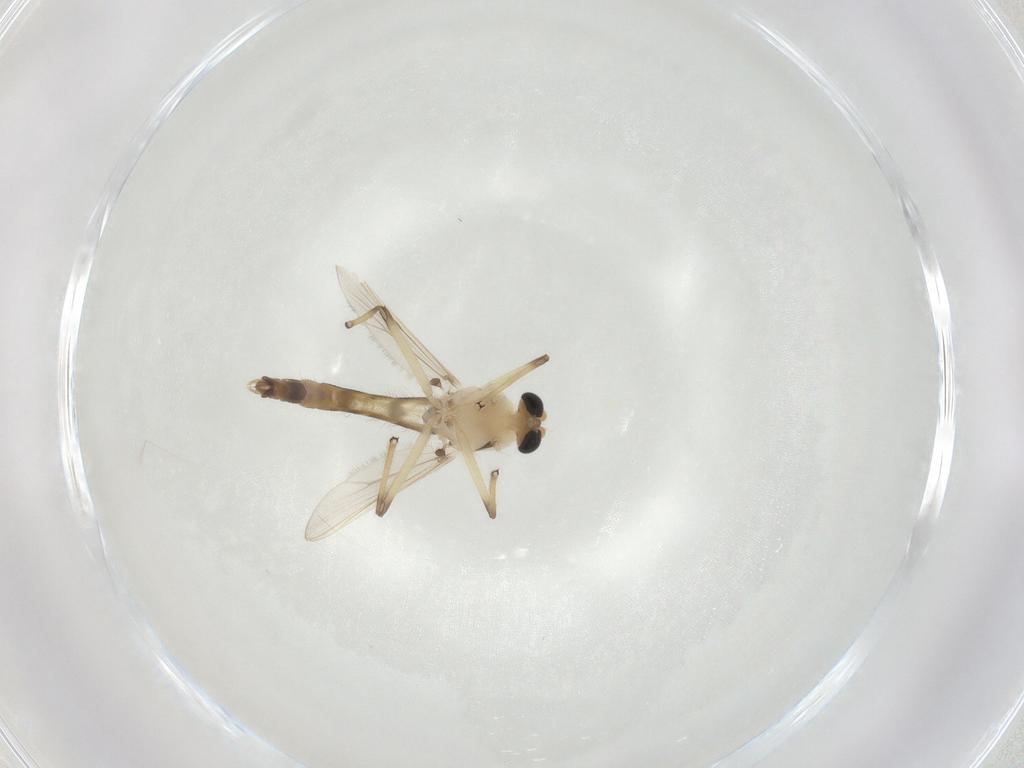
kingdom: Animalia
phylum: Arthropoda
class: Insecta
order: Diptera
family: Chironomidae
